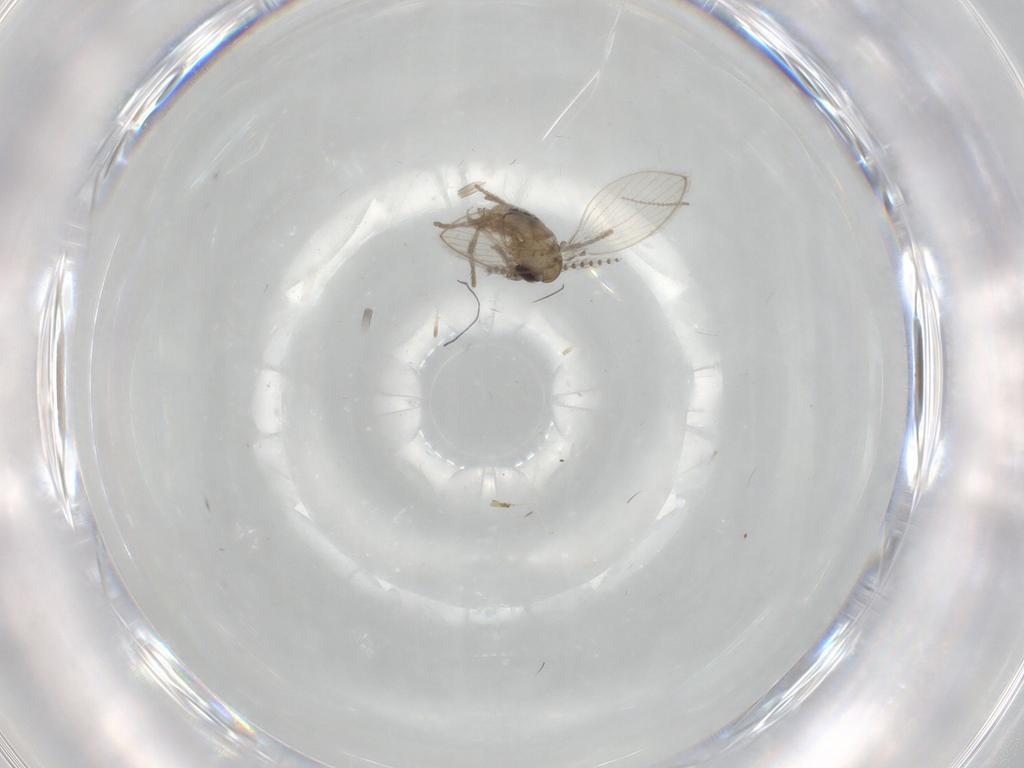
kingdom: Animalia
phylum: Arthropoda
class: Insecta
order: Diptera
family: Psychodidae
